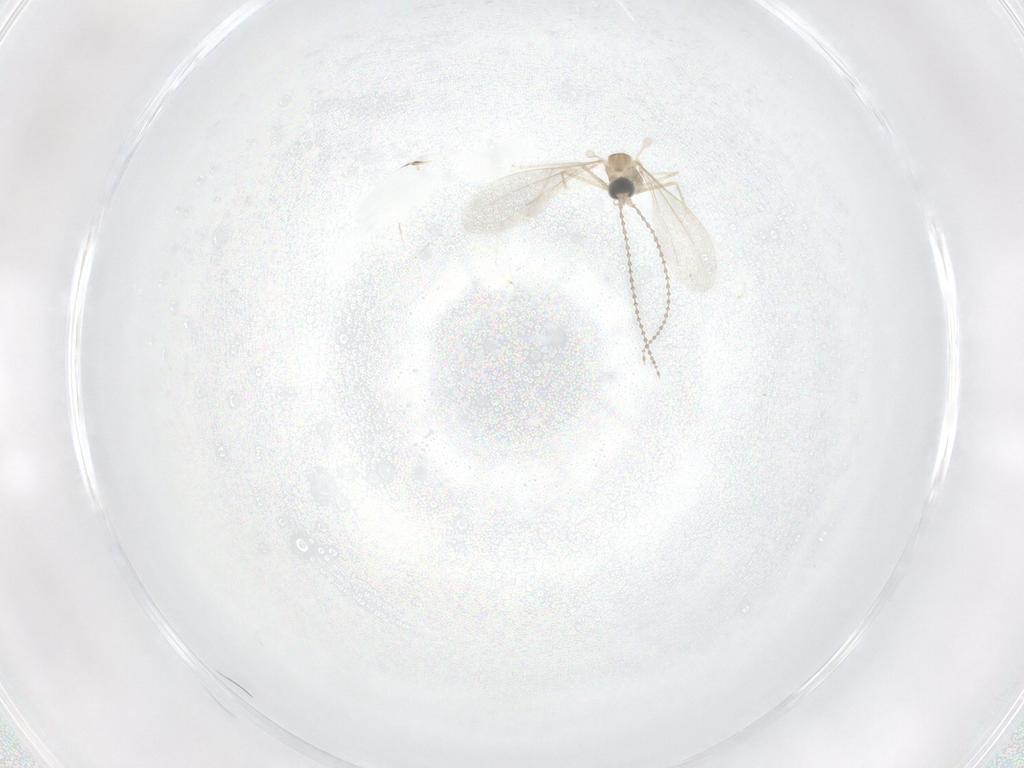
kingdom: Animalia
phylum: Arthropoda
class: Insecta
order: Diptera
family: Cecidomyiidae
